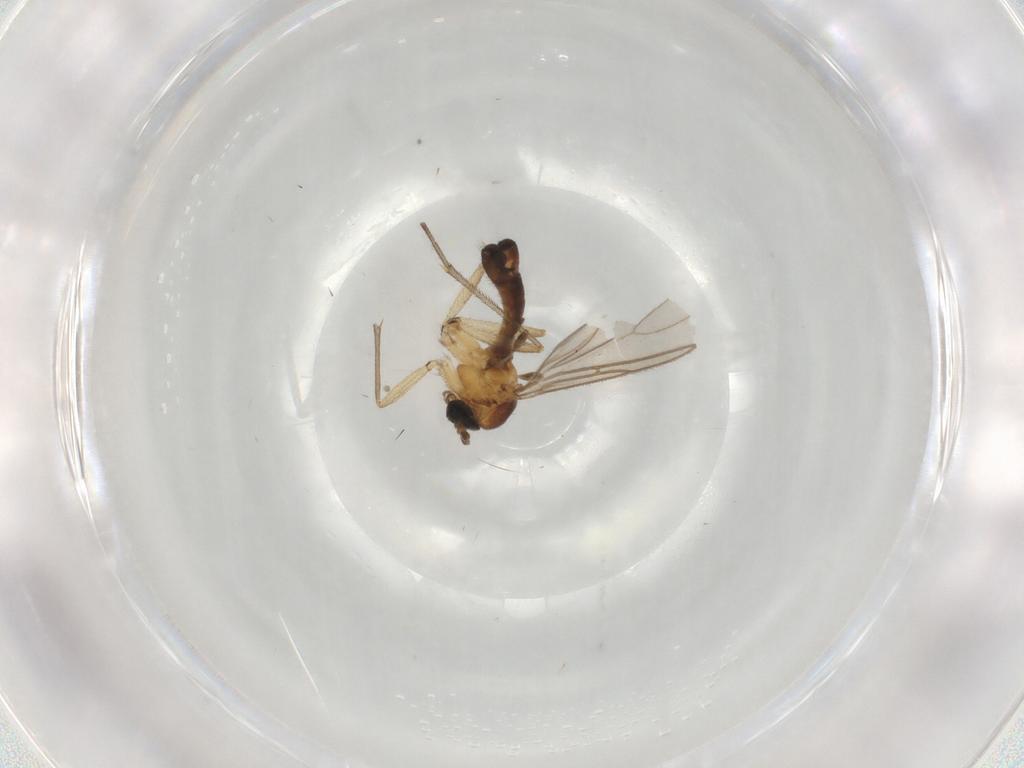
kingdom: Animalia
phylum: Arthropoda
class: Insecta
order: Diptera
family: Sciaridae
